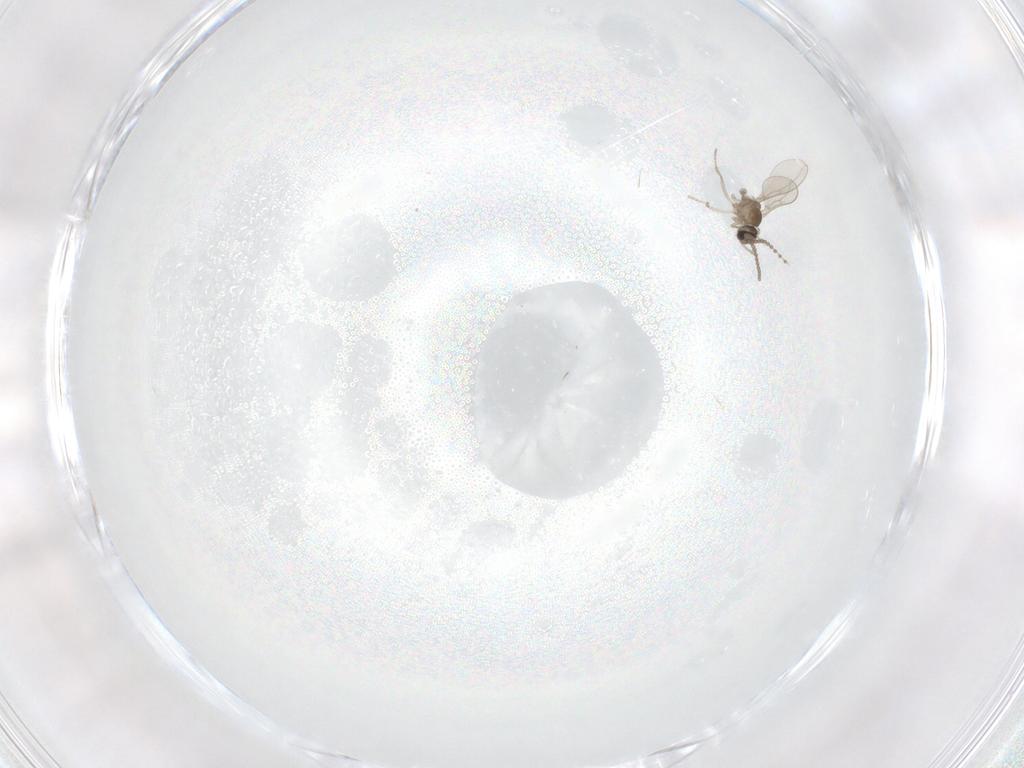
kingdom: Animalia
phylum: Arthropoda
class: Insecta
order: Diptera
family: Cecidomyiidae
